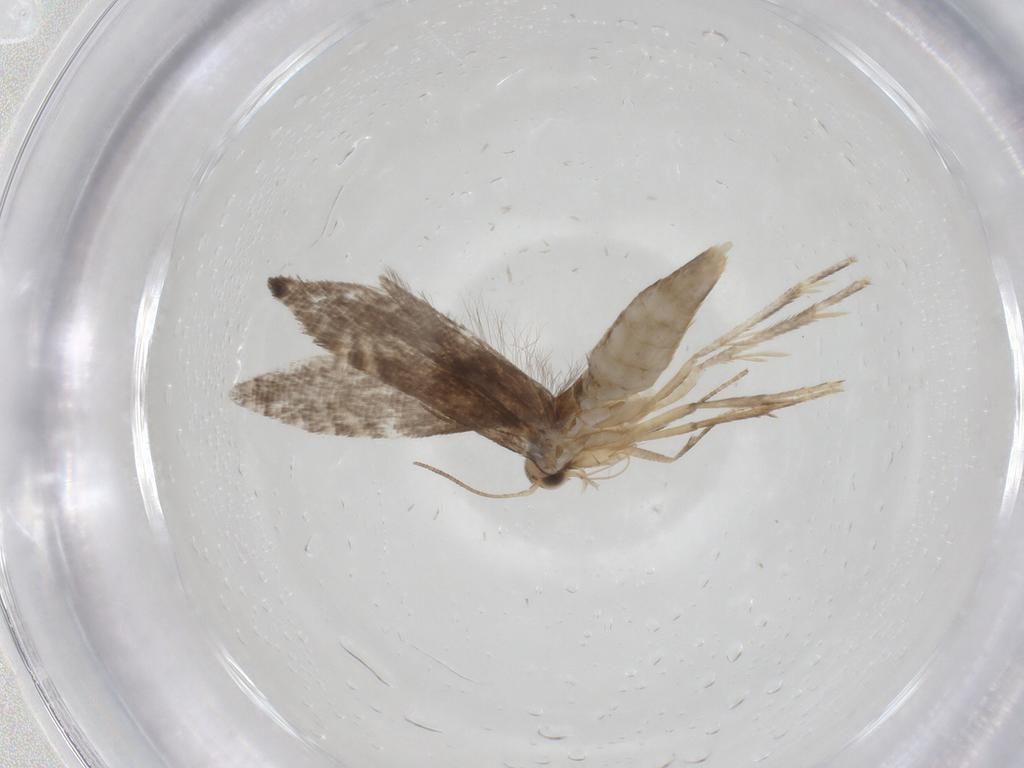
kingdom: Animalia
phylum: Arthropoda
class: Insecta
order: Lepidoptera
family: Glyphipterigidae
